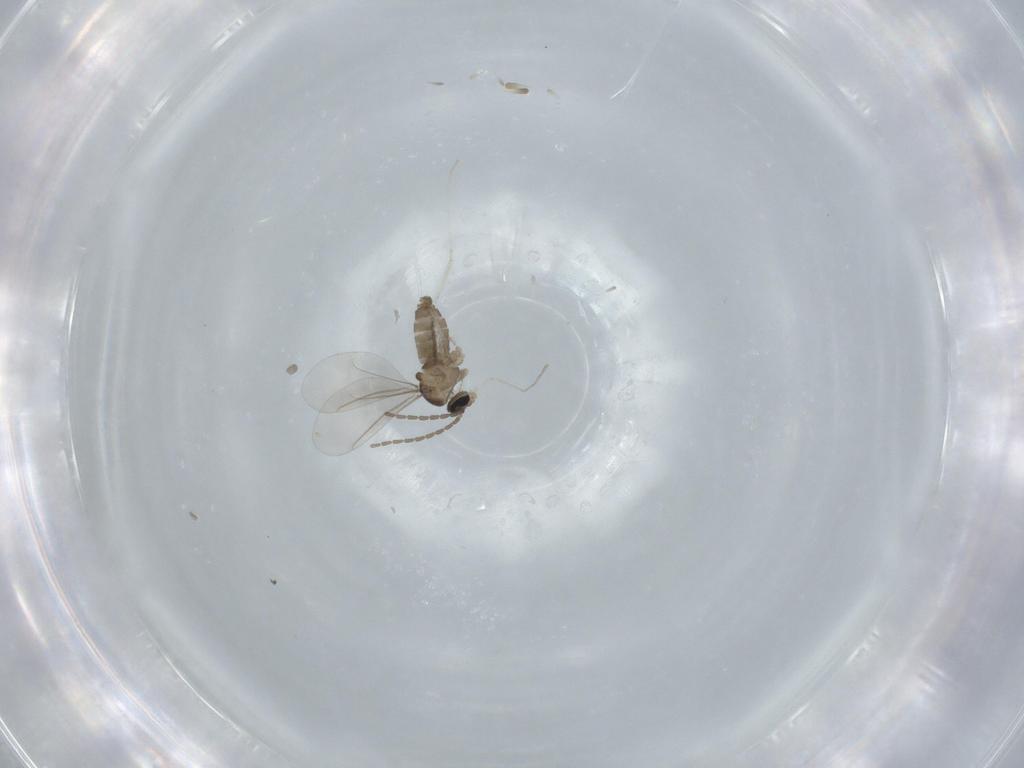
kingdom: Animalia
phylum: Arthropoda
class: Insecta
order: Diptera
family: Cecidomyiidae
